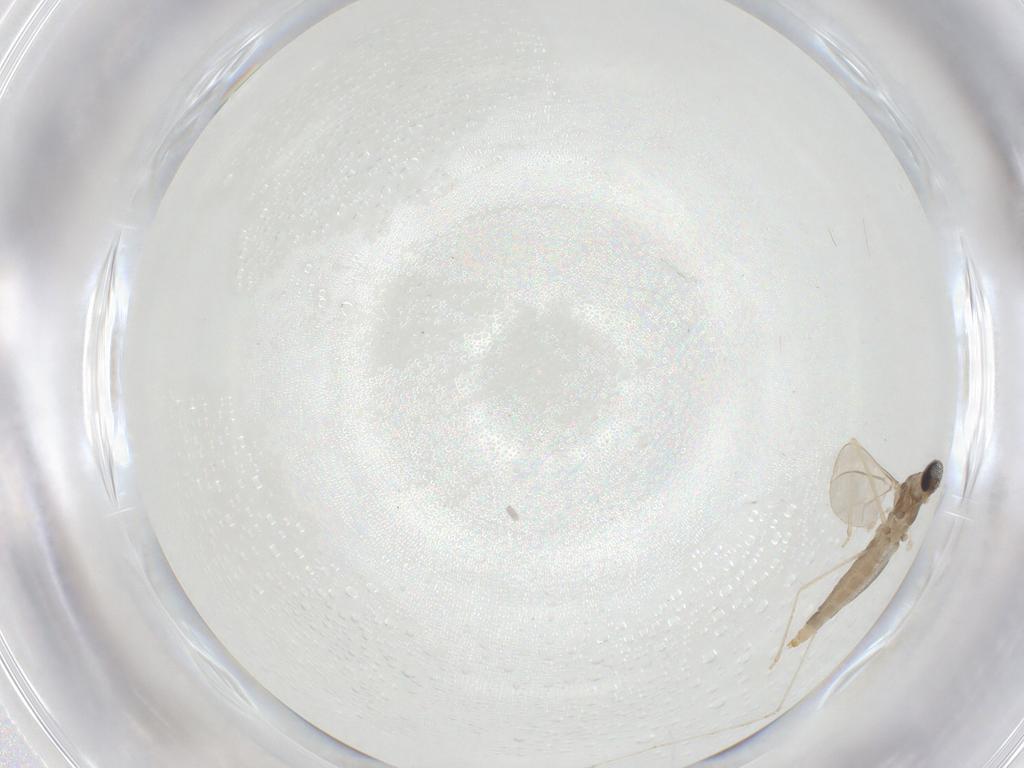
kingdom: Animalia
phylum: Arthropoda
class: Insecta
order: Diptera
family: Cecidomyiidae
